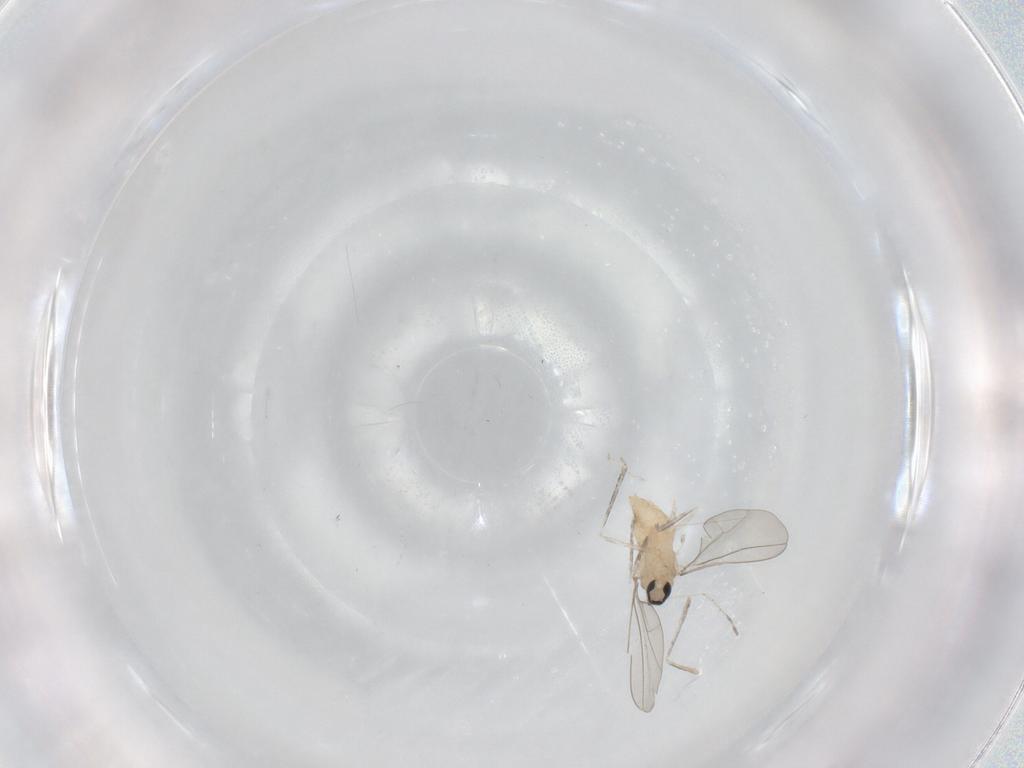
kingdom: Animalia
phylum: Arthropoda
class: Insecta
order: Diptera
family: Cecidomyiidae
